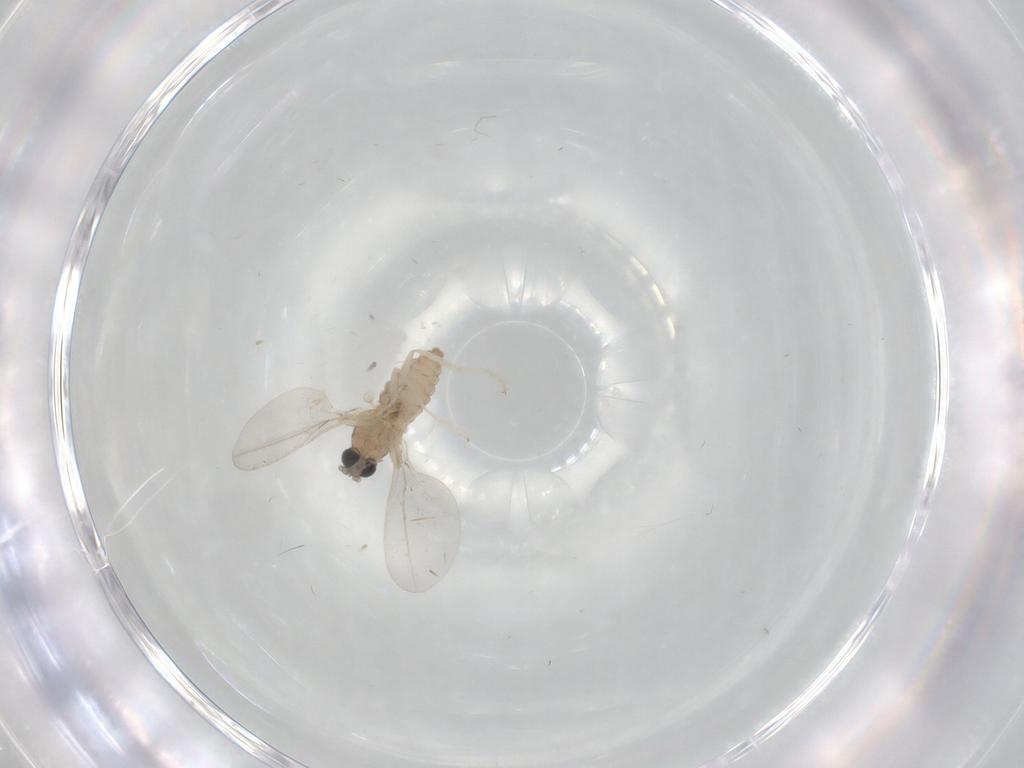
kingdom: Animalia
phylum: Arthropoda
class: Insecta
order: Diptera
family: Cecidomyiidae
